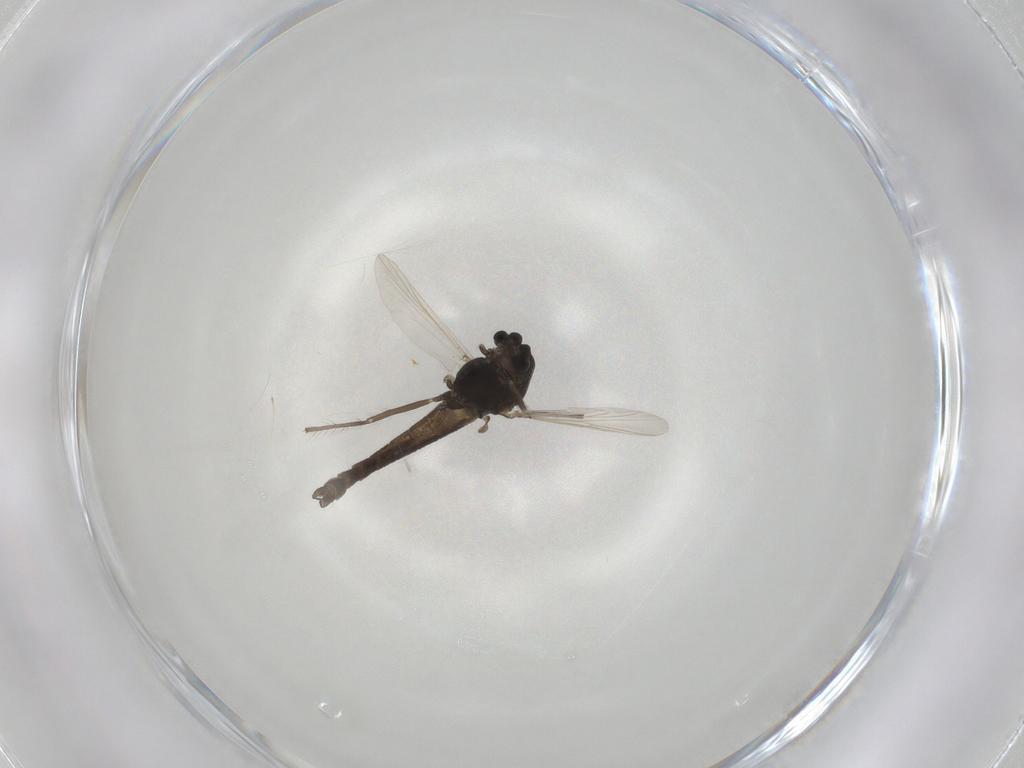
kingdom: Animalia
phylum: Arthropoda
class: Insecta
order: Diptera
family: Chironomidae
